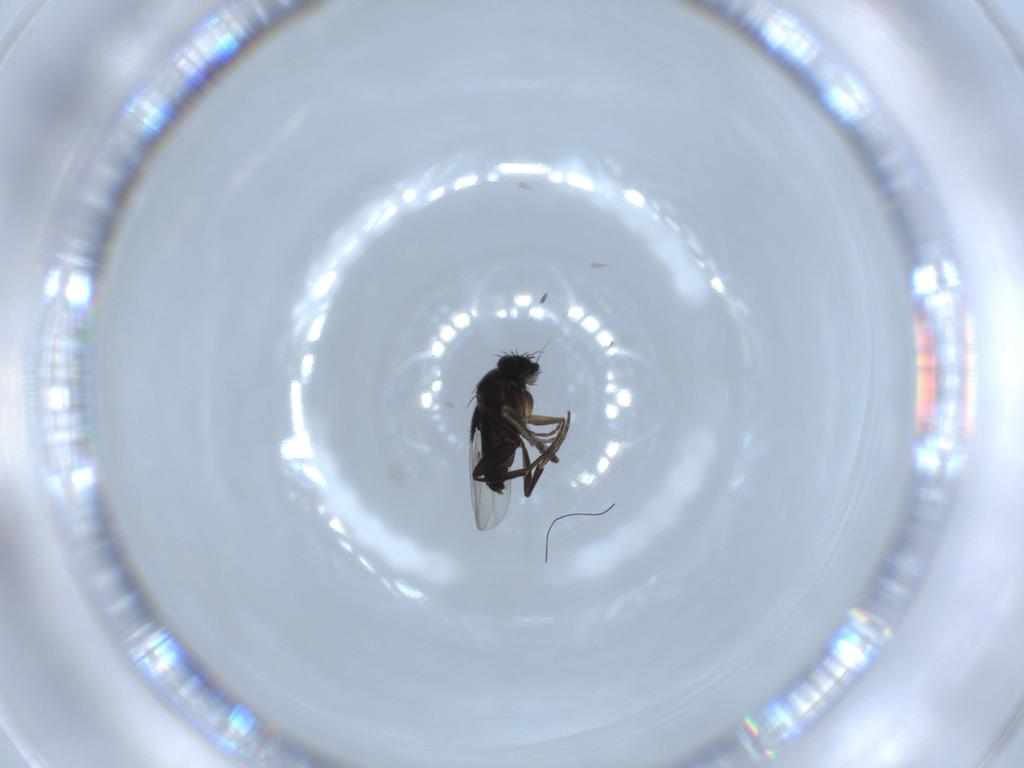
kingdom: Animalia
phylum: Arthropoda
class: Insecta
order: Diptera
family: Phoridae
